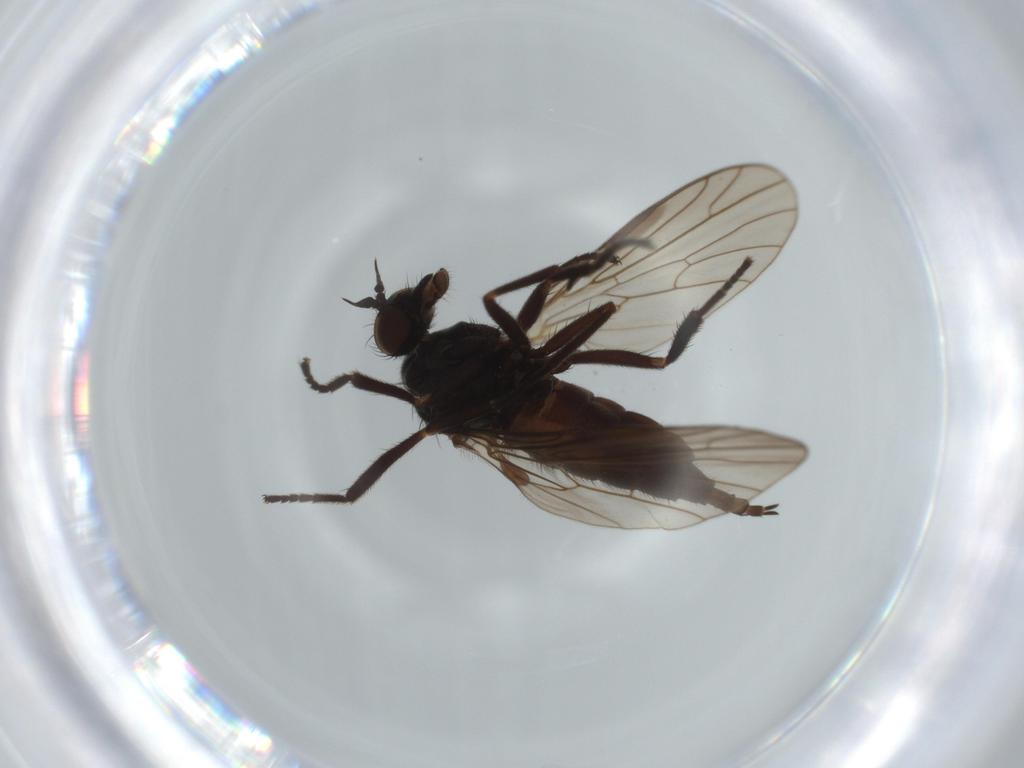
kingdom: Animalia
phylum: Arthropoda
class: Insecta
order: Diptera
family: Empididae
